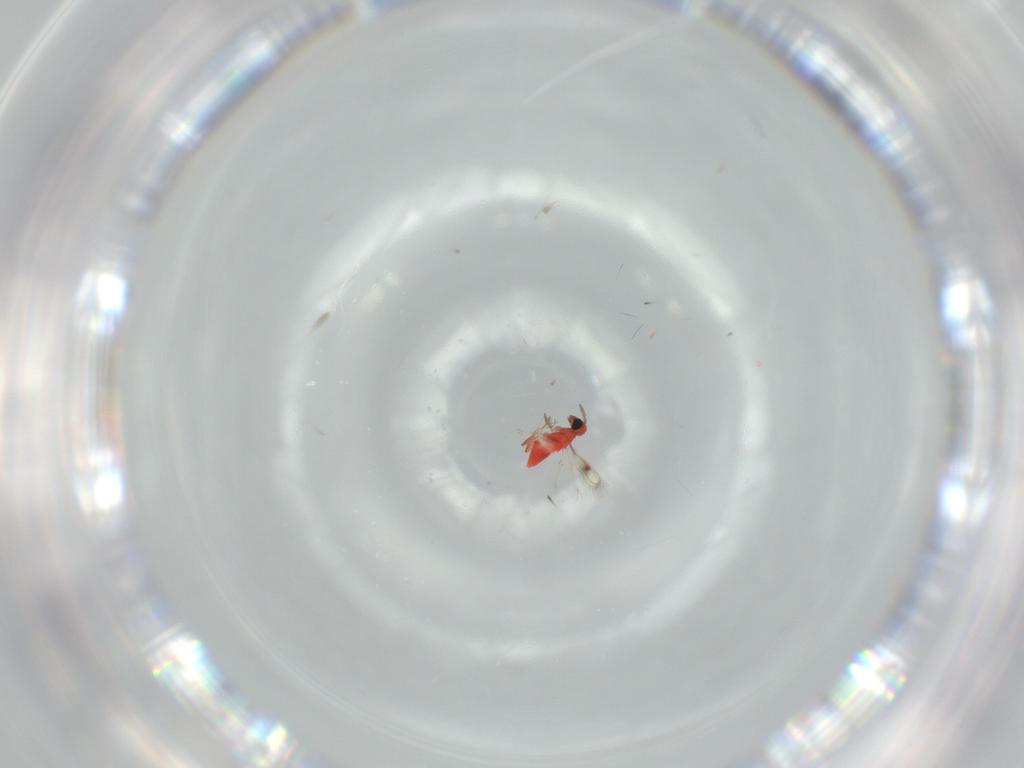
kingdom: Animalia
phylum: Arthropoda
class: Insecta
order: Hymenoptera
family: Trichogrammatidae
